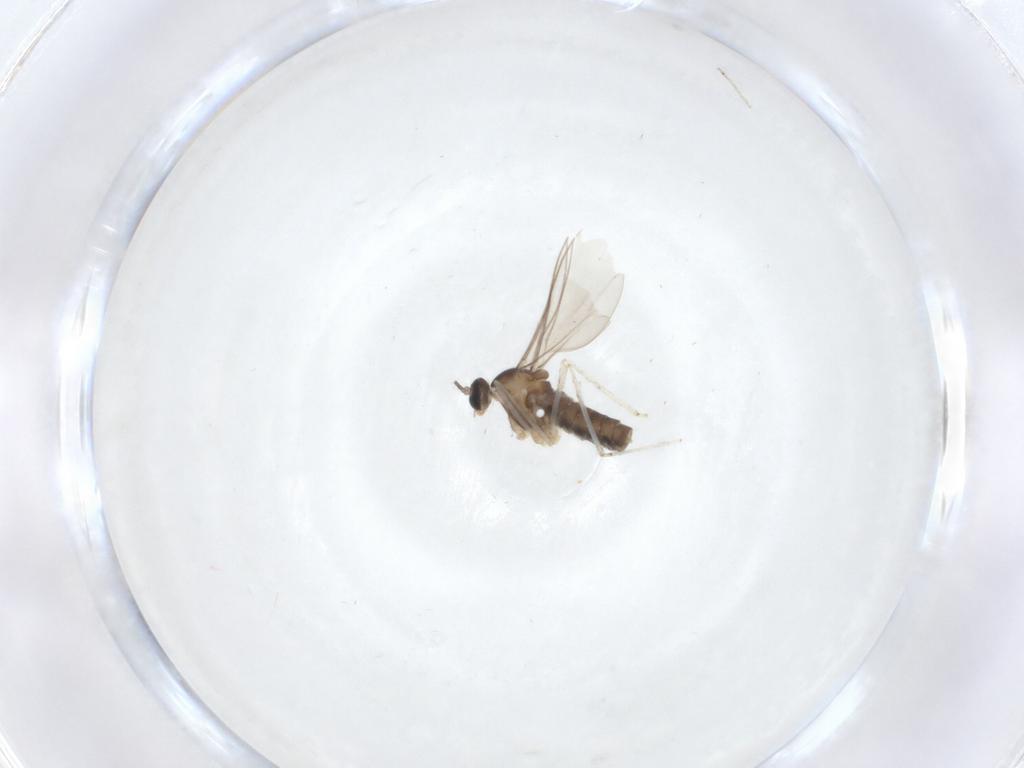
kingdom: Animalia
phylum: Arthropoda
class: Insecta
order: Diptera
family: Cecidomyiidae
